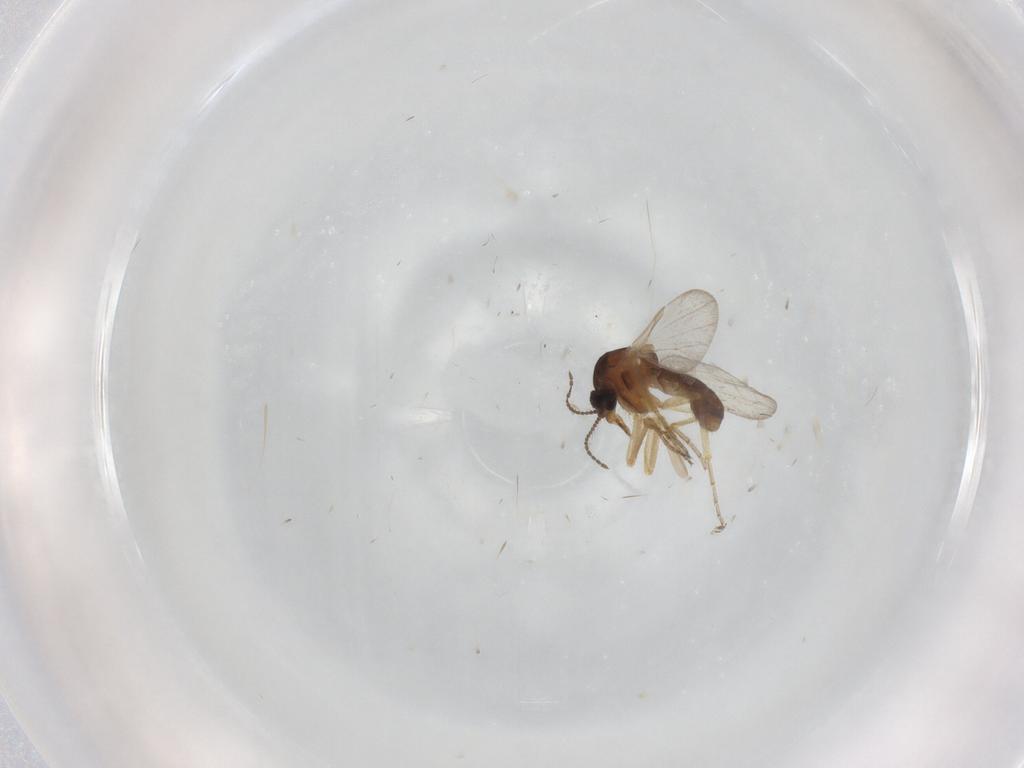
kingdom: Animalia
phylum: Arthropoda
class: Insecta
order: Diptera
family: Ceratopogonidae
